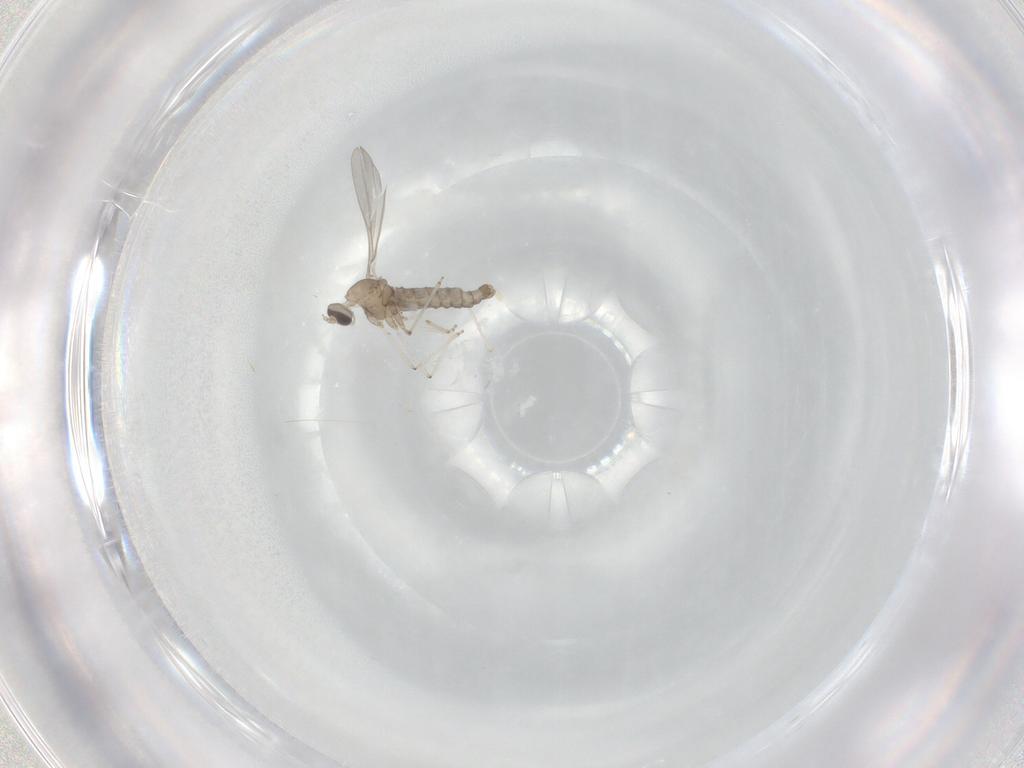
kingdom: Animalia
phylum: Arthropoda
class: Insecta
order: Diptera
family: Cecidomyiidae
